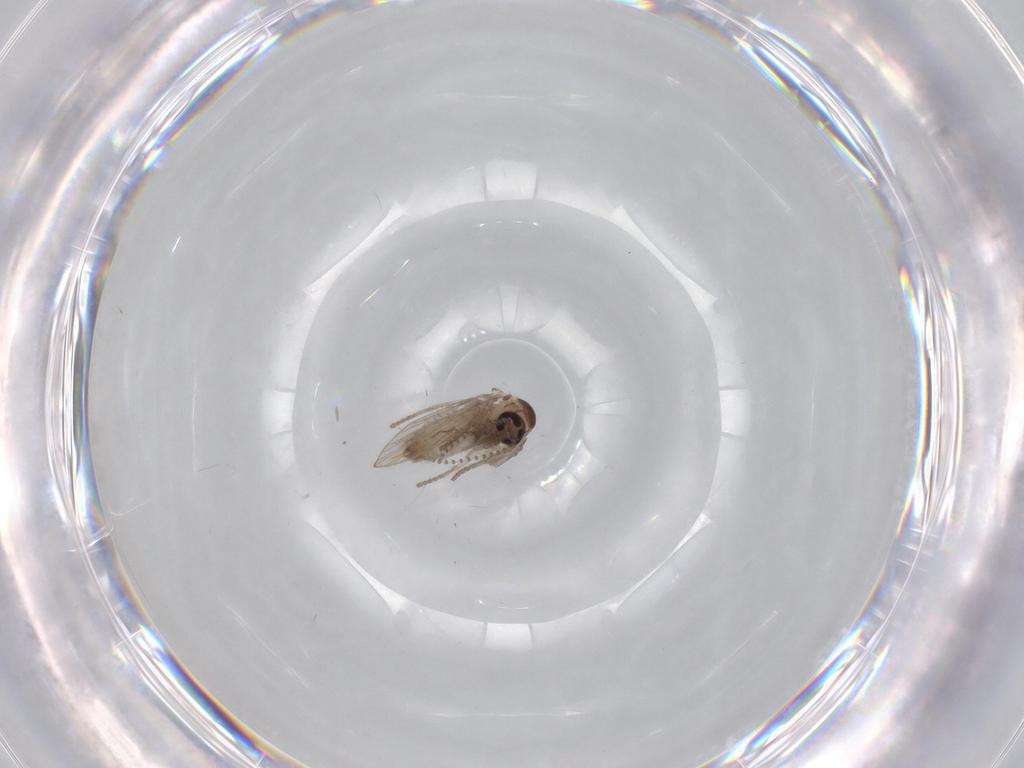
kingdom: Animalia
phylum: Arthropoda
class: Insecta
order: Diptera
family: Psychodidae
